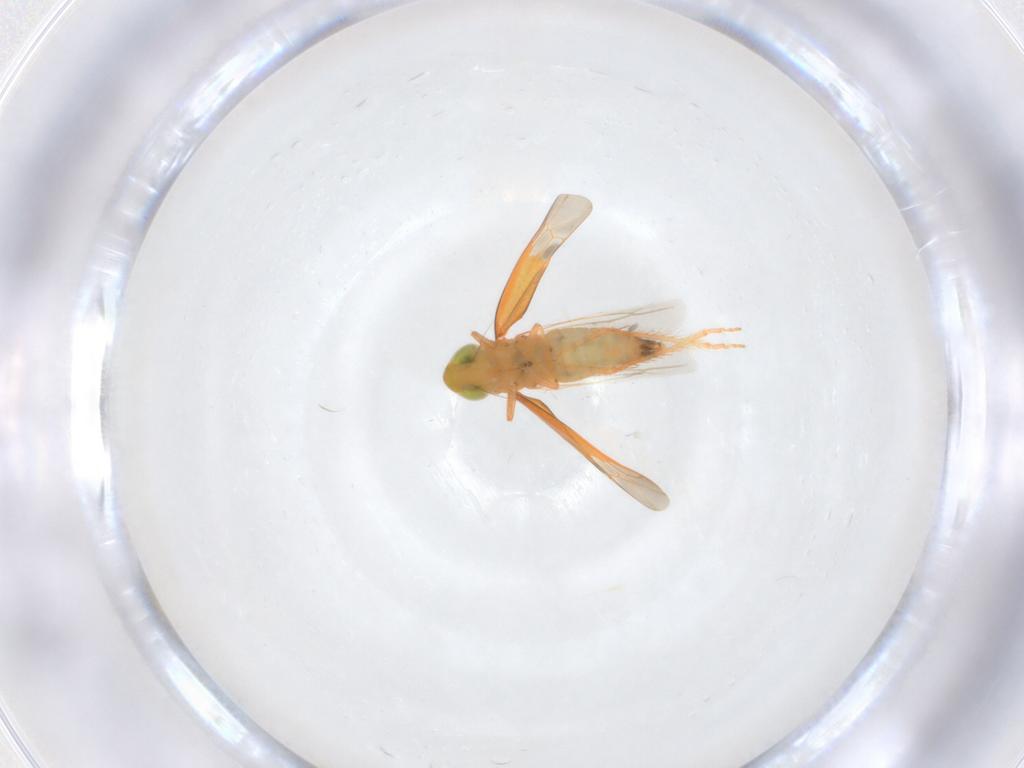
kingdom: Animalia
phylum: Arthropoda
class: Insecta
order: Hemiptera
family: Cicadellidae
